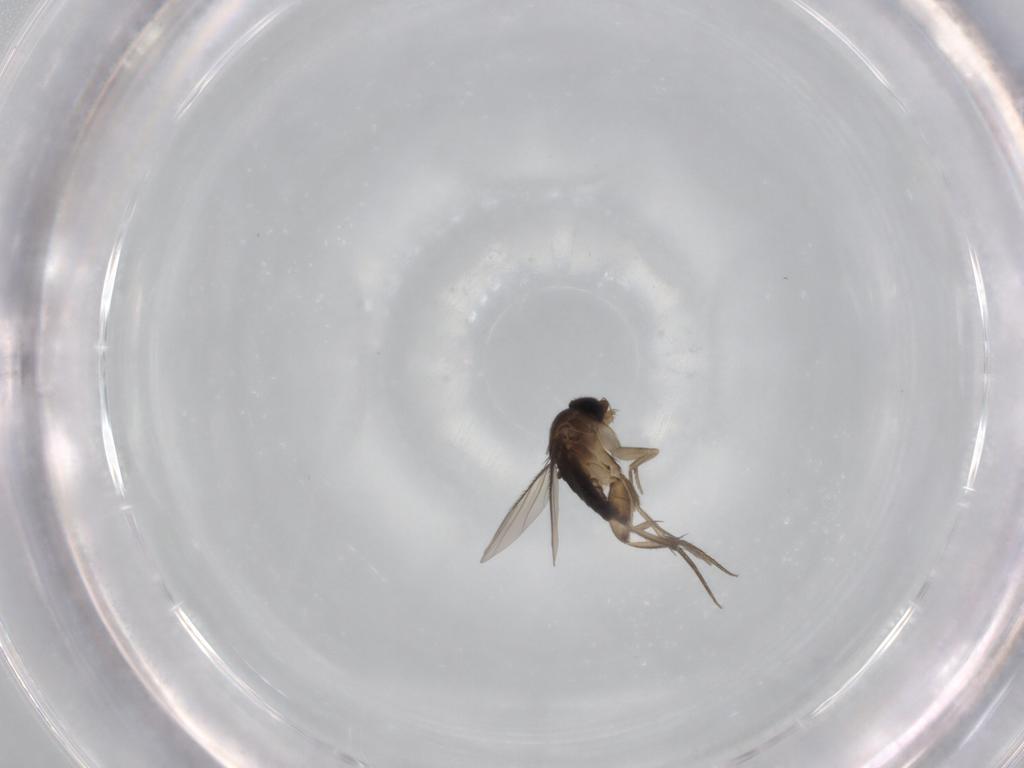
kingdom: Animalia
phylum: Arthropoda
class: Insecta
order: Diptera
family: Phoridae
